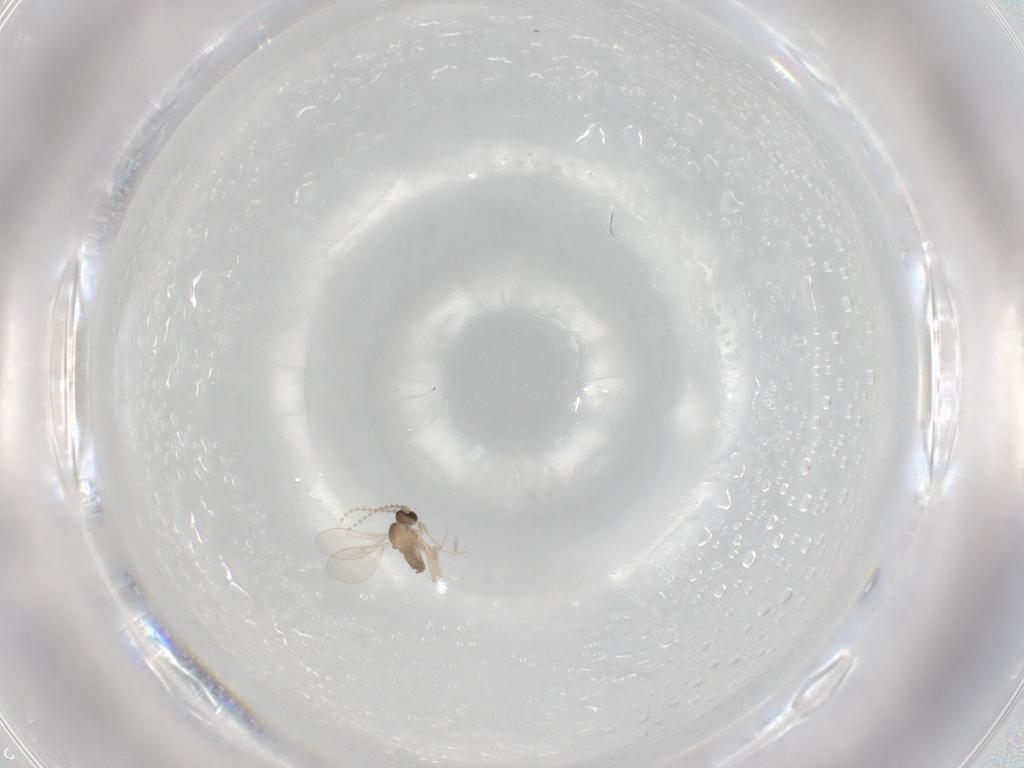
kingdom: Animalia
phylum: Arthropoda
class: Insecta
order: Diptera
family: Cecidomyiidae
